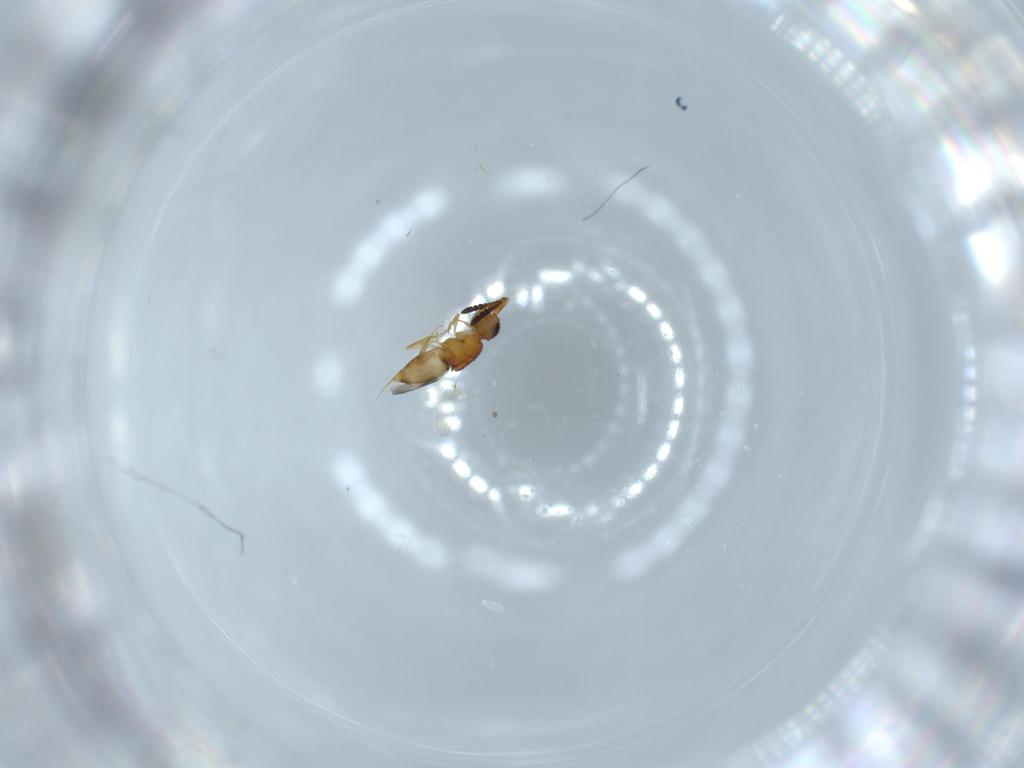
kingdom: Animalia
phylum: Arthropoda
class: Insecta
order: Hymenoptera
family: Ceraphronidae
